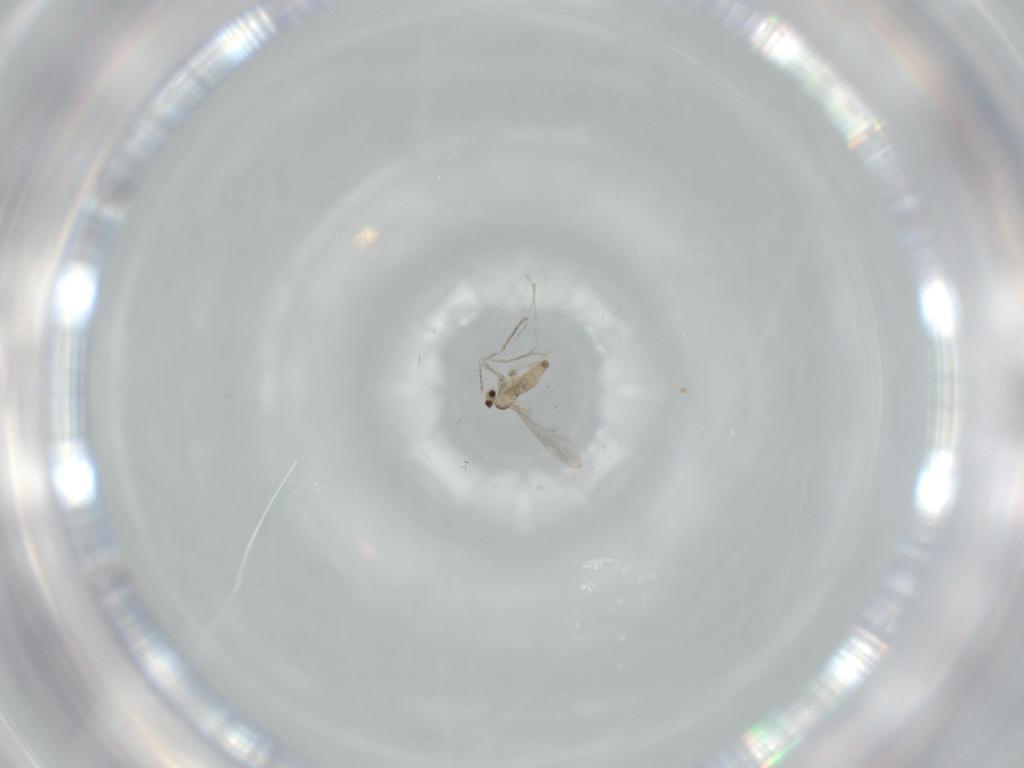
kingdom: Animalia
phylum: Arthropoda
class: Insecta
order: Diptera
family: Cecidomyiidae
